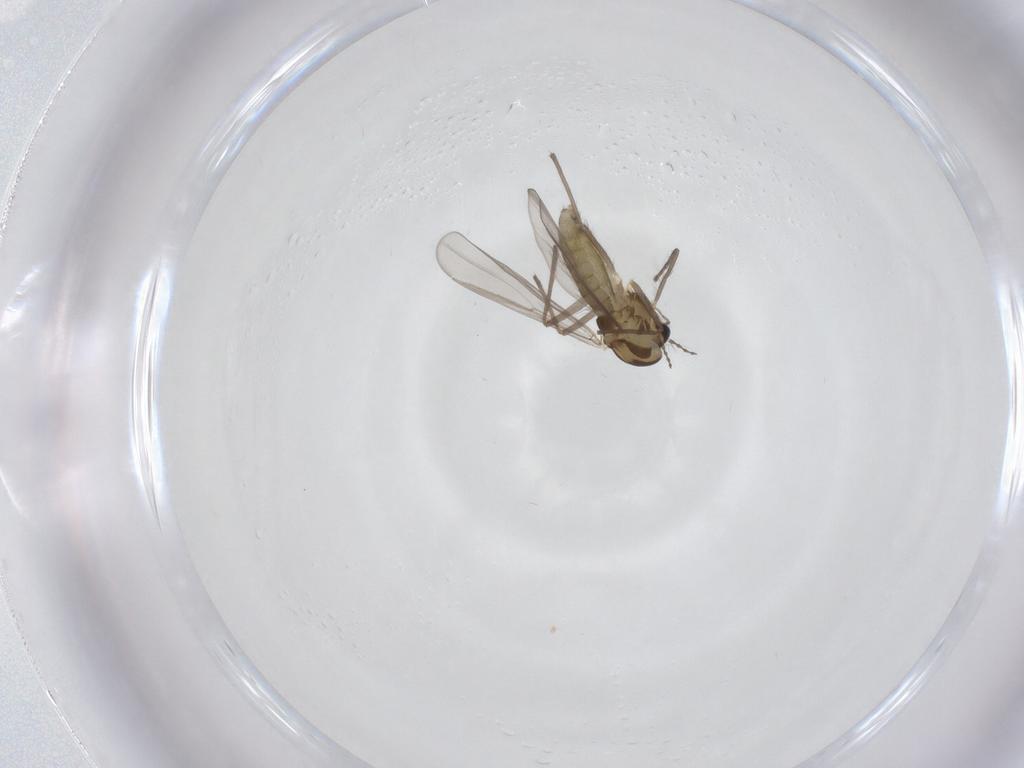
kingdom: Animalia
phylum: Arthropoda
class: Insecta
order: Diptera
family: Chironomidae
